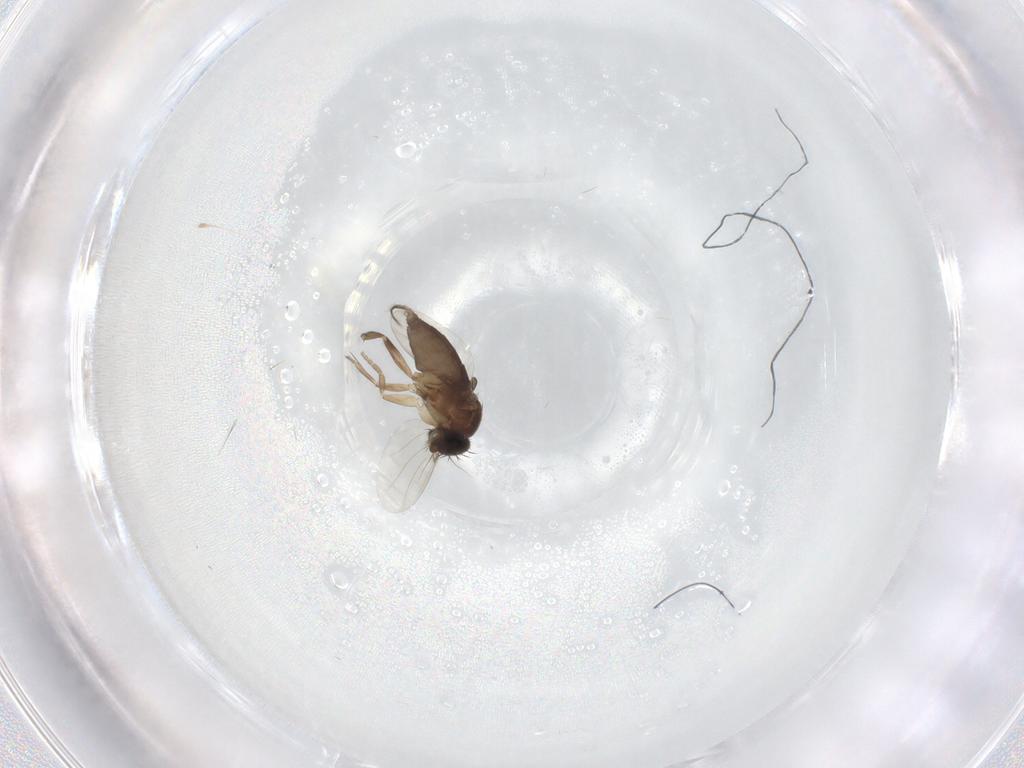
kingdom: Animalia
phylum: Arthropoda
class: Insecta
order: Diptera
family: Phoridae
